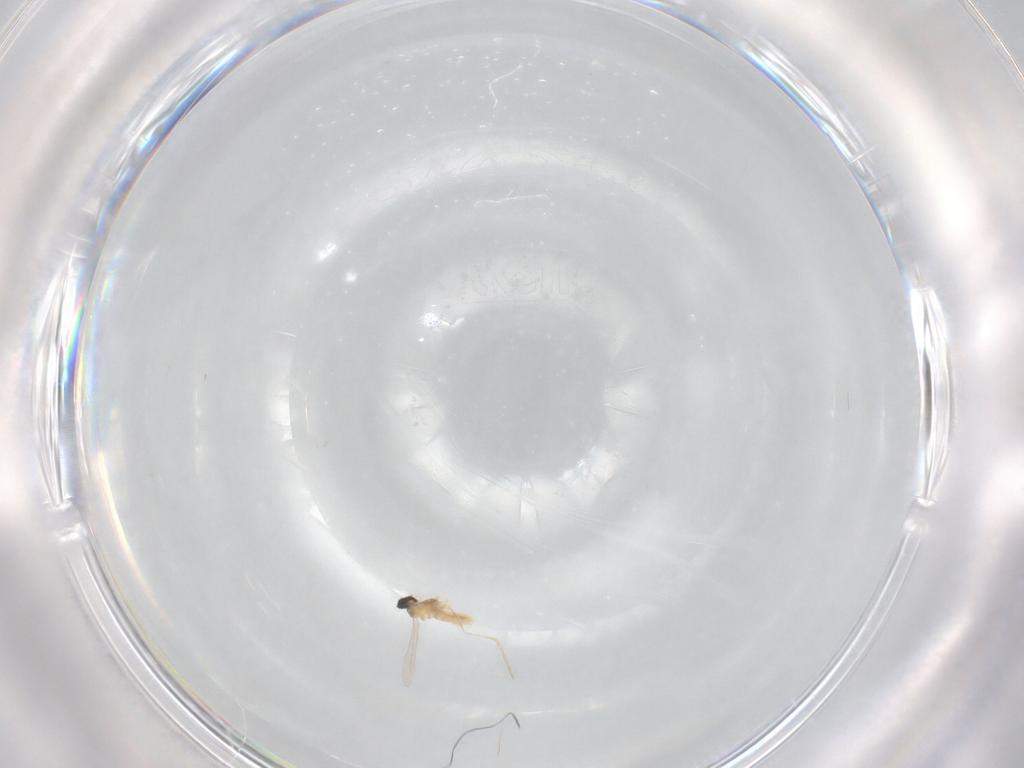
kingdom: Animalia
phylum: Arthropoda
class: Insecta
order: Diptera
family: Cecidomyiidae
